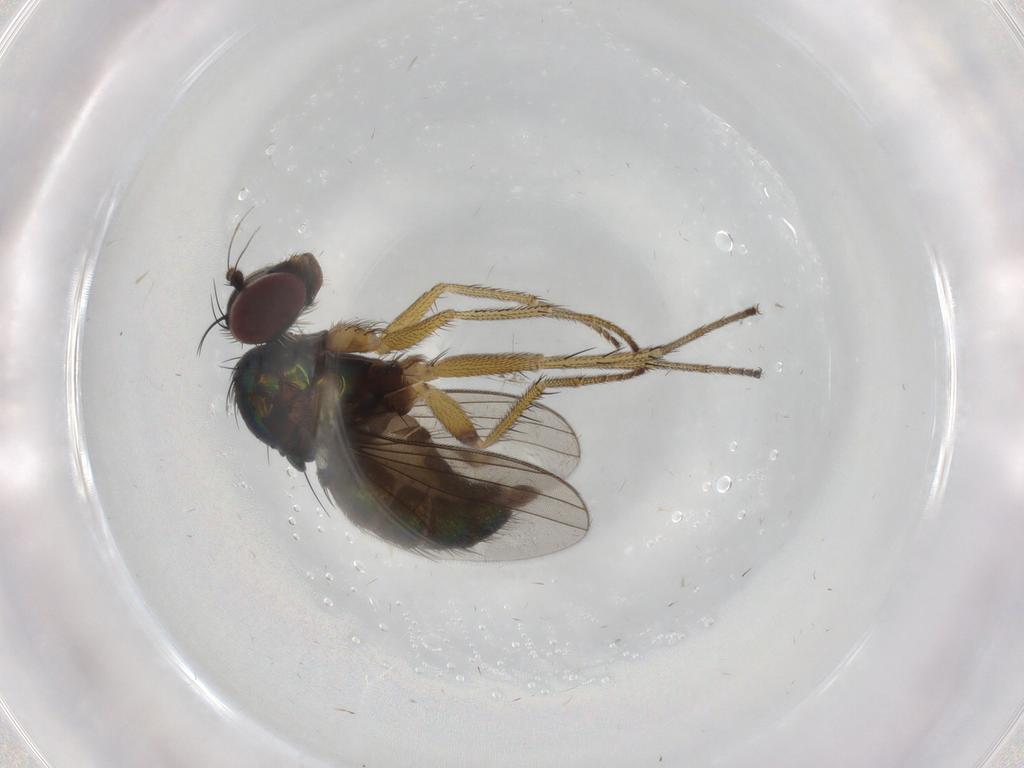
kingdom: Animalia
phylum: Arthropoda
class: Insecta
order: Diptera
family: Dolichopodidae
